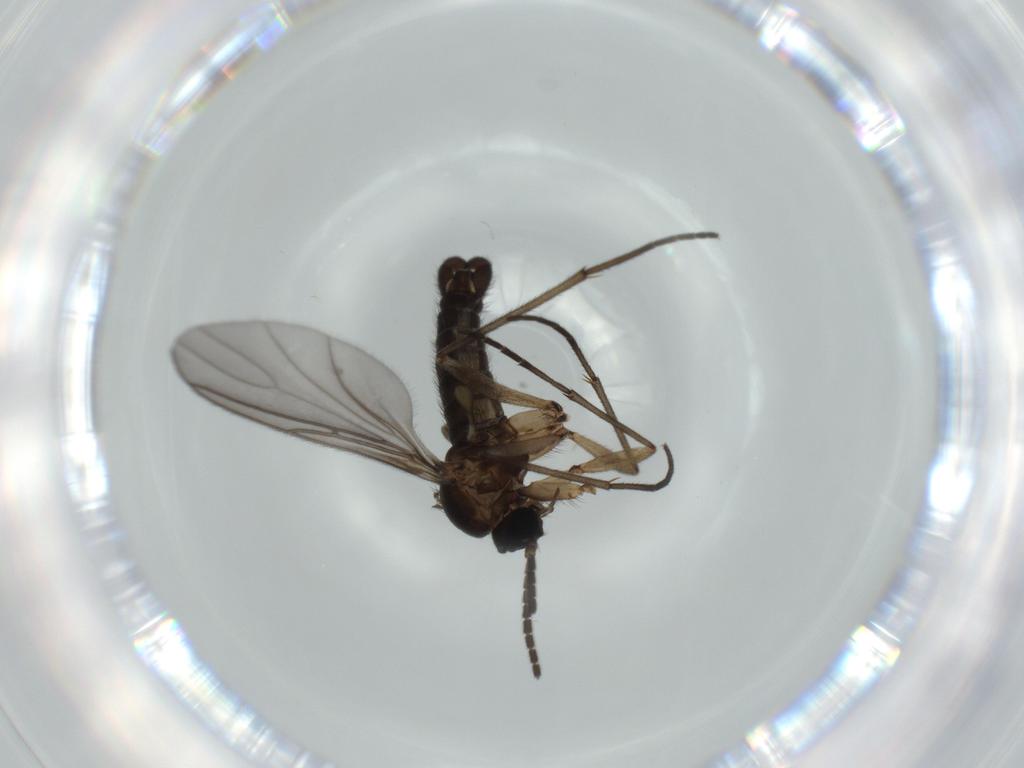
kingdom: Animalia
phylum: Arthropoda
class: Insecta
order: Diptera
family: Sciaridae
